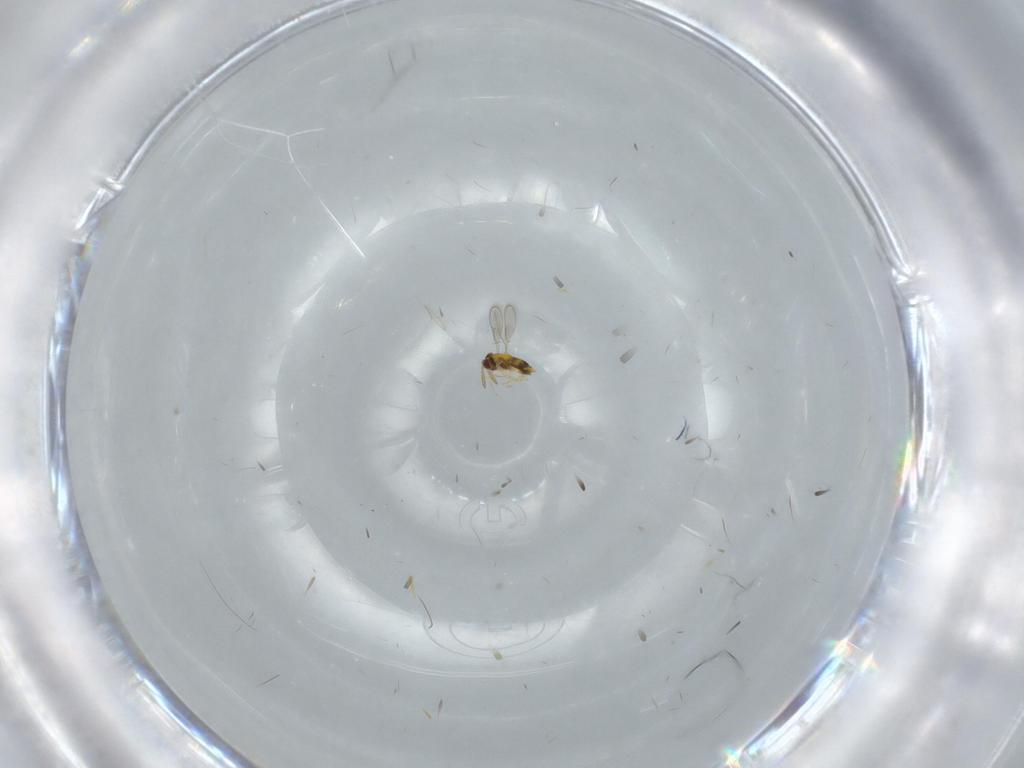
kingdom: Animalia
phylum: Arthropoda
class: Insecta
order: Hymenoptera
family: Vespidae
